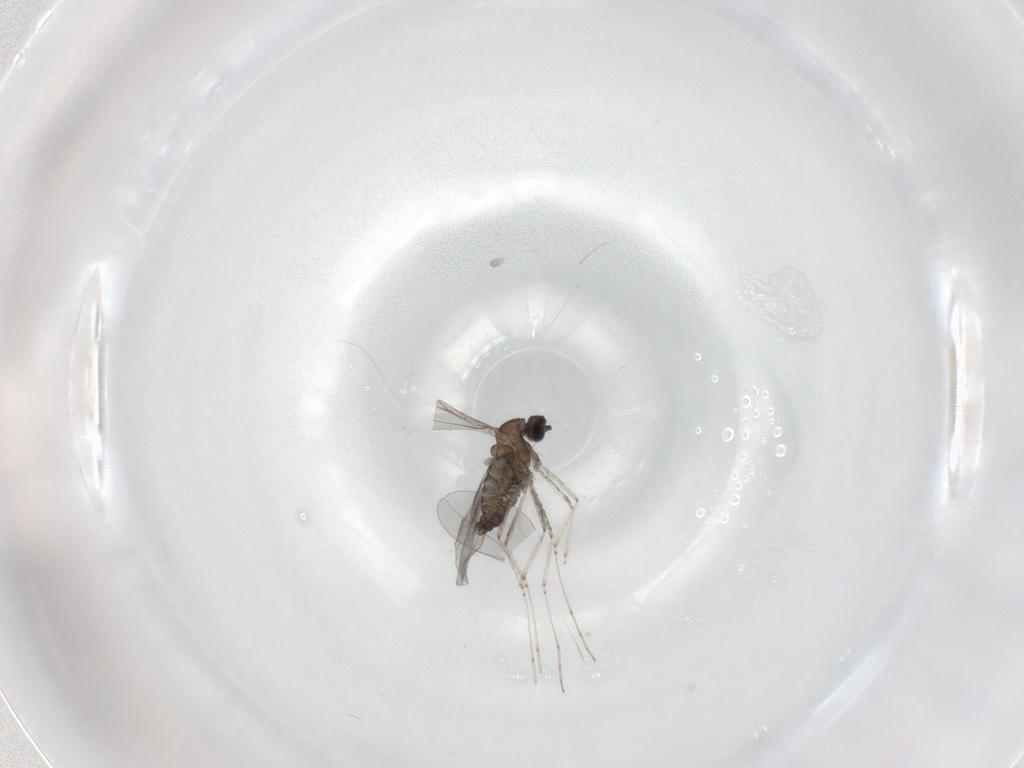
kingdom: Animalia
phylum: Arthropoda
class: Insecta
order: Diptera
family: Cecidomyiidae
